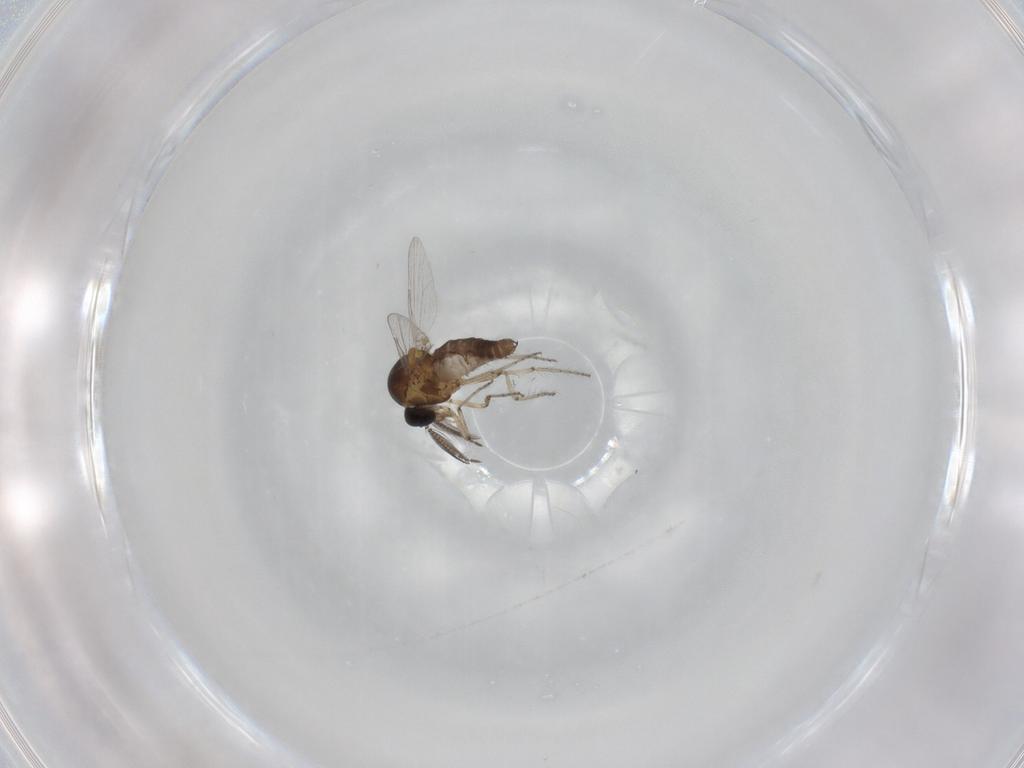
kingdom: Animalia
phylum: Arthropoda
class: Insecta
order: Diptera
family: Ceratopogonidae
